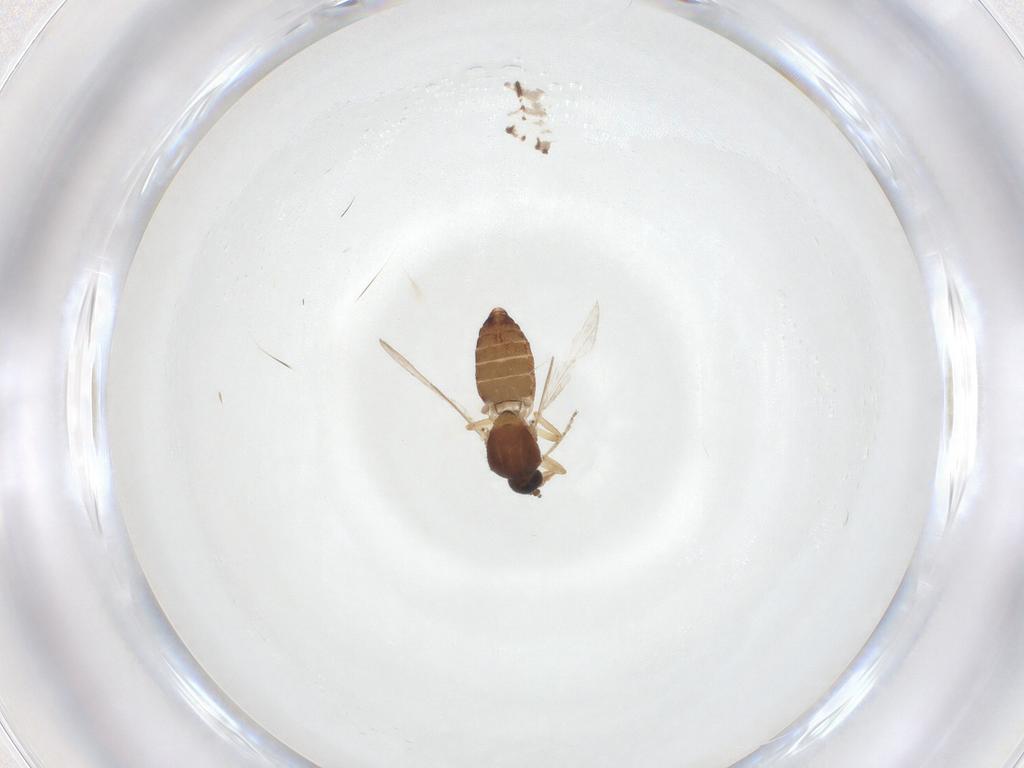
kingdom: Animalia
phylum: Arthropoda
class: Insecta
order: Diptera
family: Ceratopogonidae
